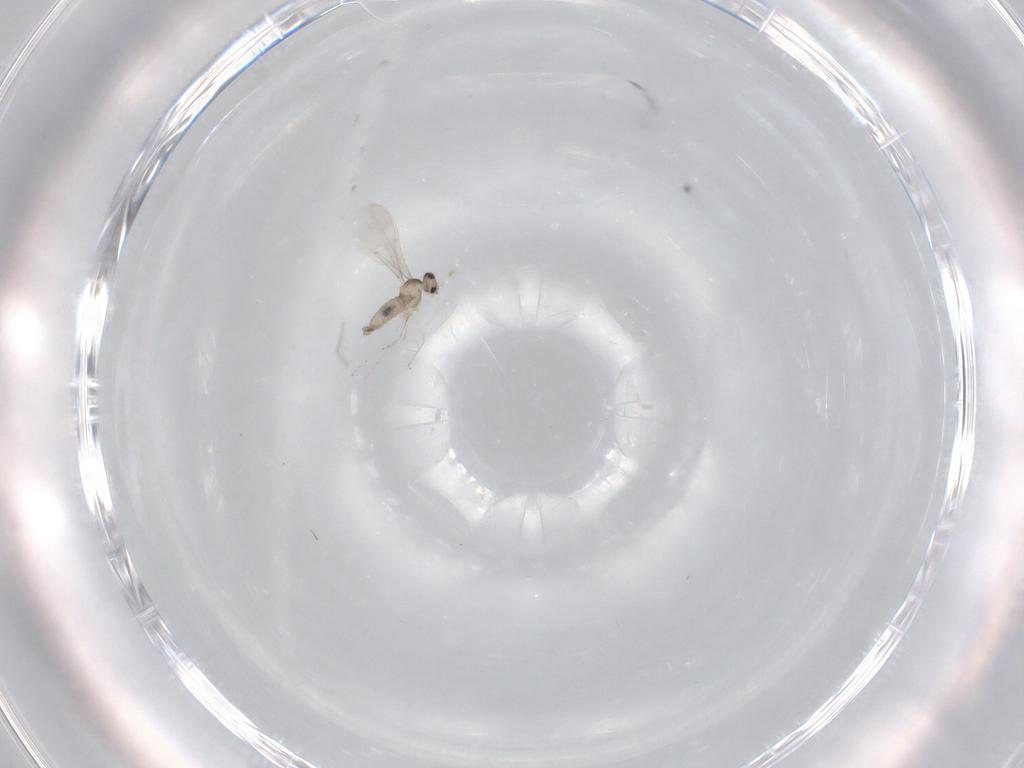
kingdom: Animalia
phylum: Arthropoda
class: Insecta
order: Diptera
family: Cecidomyiidae
